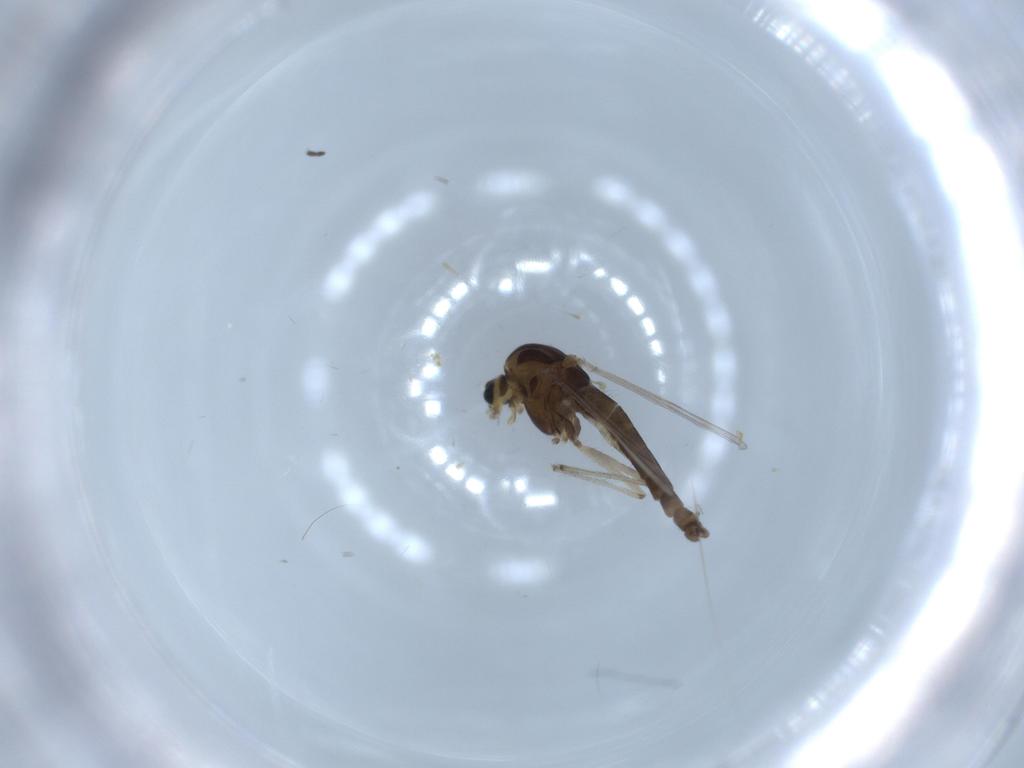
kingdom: Animalia
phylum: Arthropoda
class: Insecta
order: Diptera
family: Chironomidae
